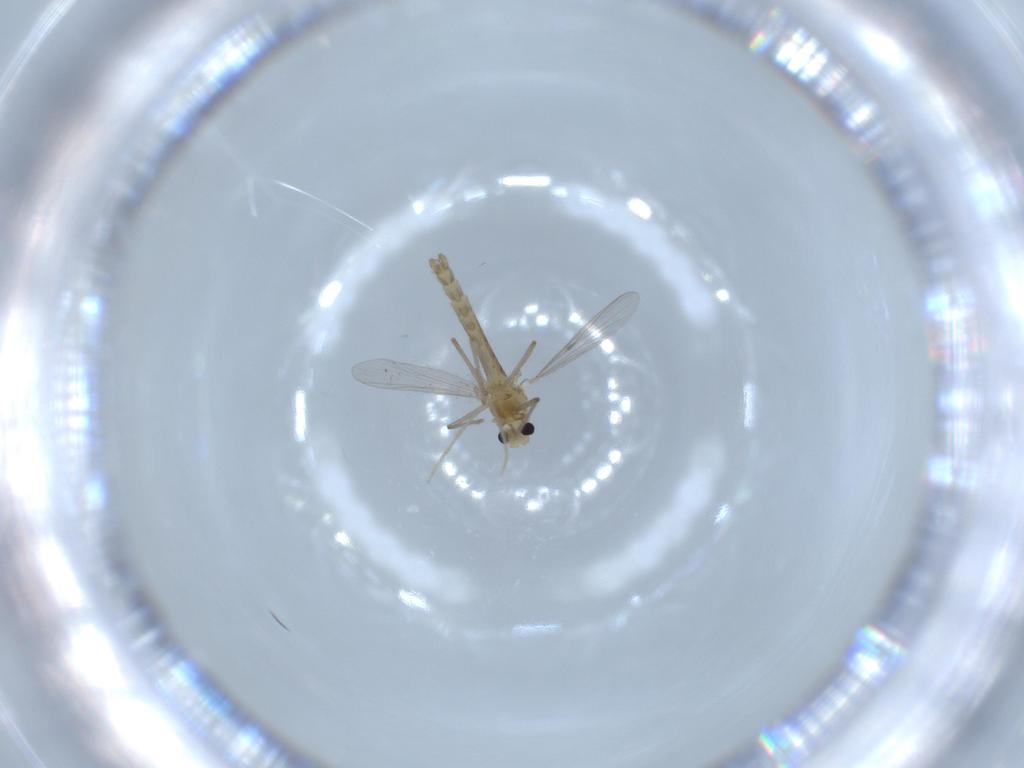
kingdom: Animalia
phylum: Arthropoda
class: Insecta
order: Diptera
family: Chironomidae
